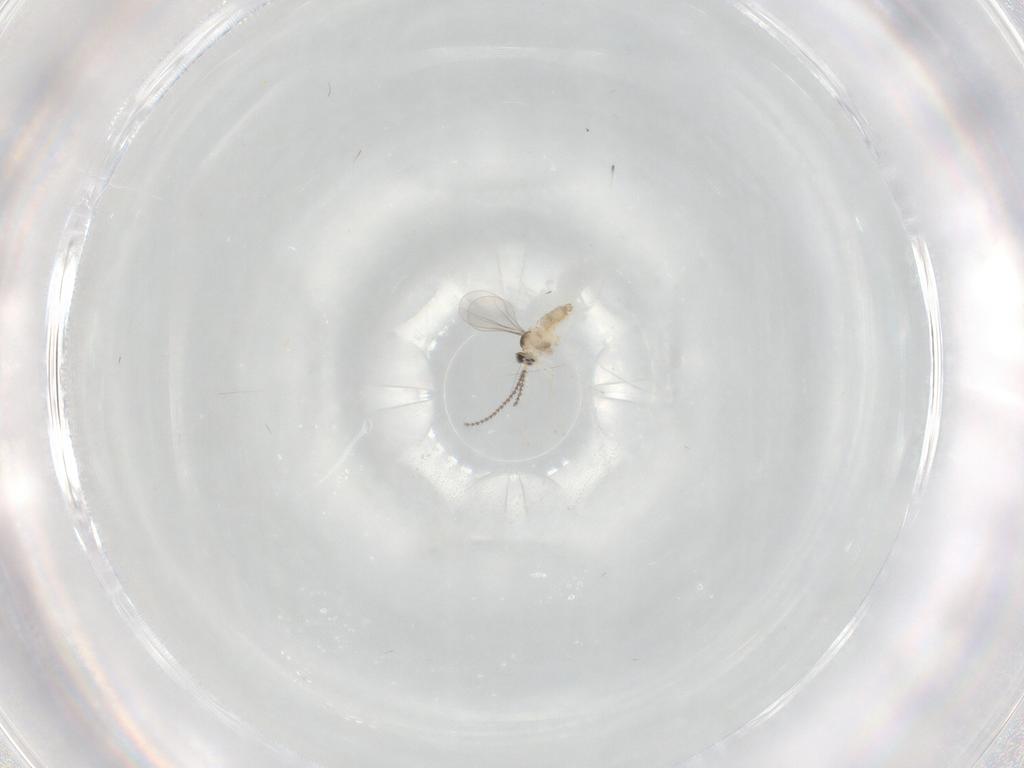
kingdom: Animalia
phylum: Arthropoda
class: Insecta
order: Diptera
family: Cecidomyiidae
